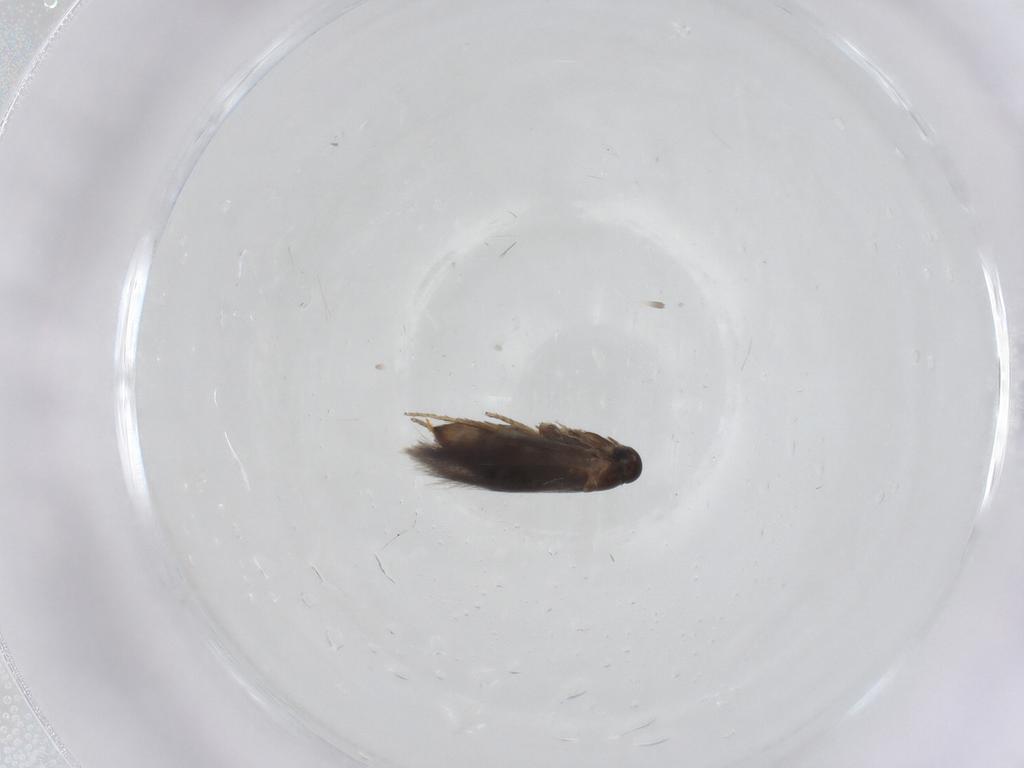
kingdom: Animalia
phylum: Arthropoda
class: Insecta
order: Lepidoptera
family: Heliozelidae
